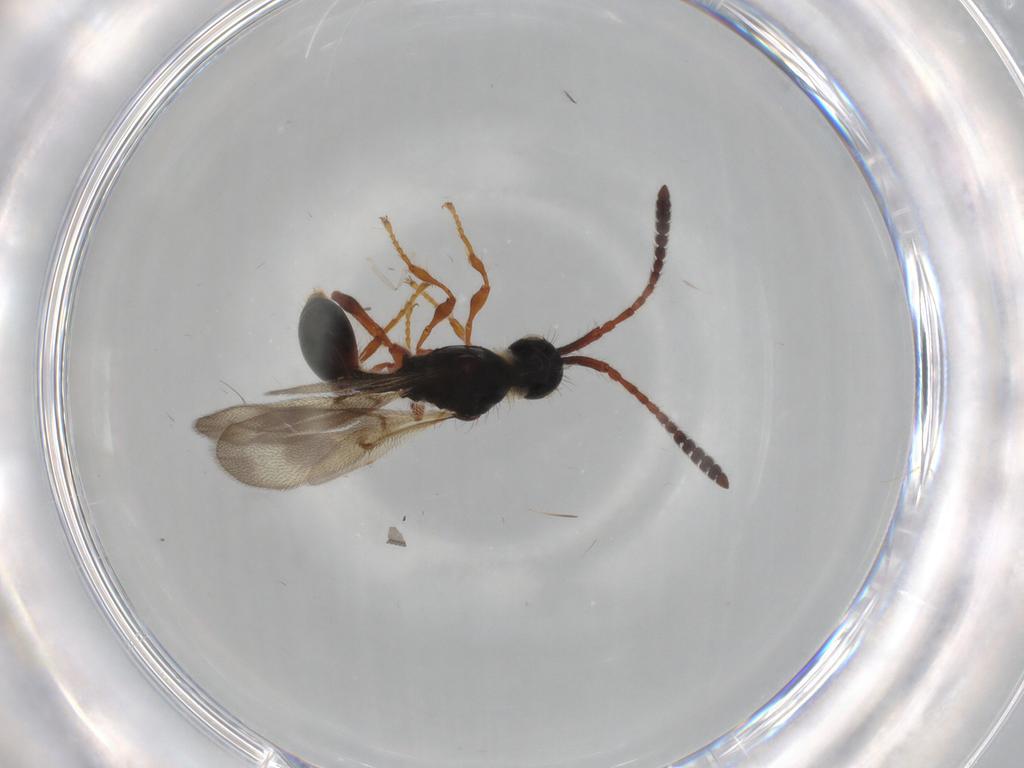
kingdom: Animalia
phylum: Arthropoda
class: Insecta
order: Hymenoptera
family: Diapriidae
